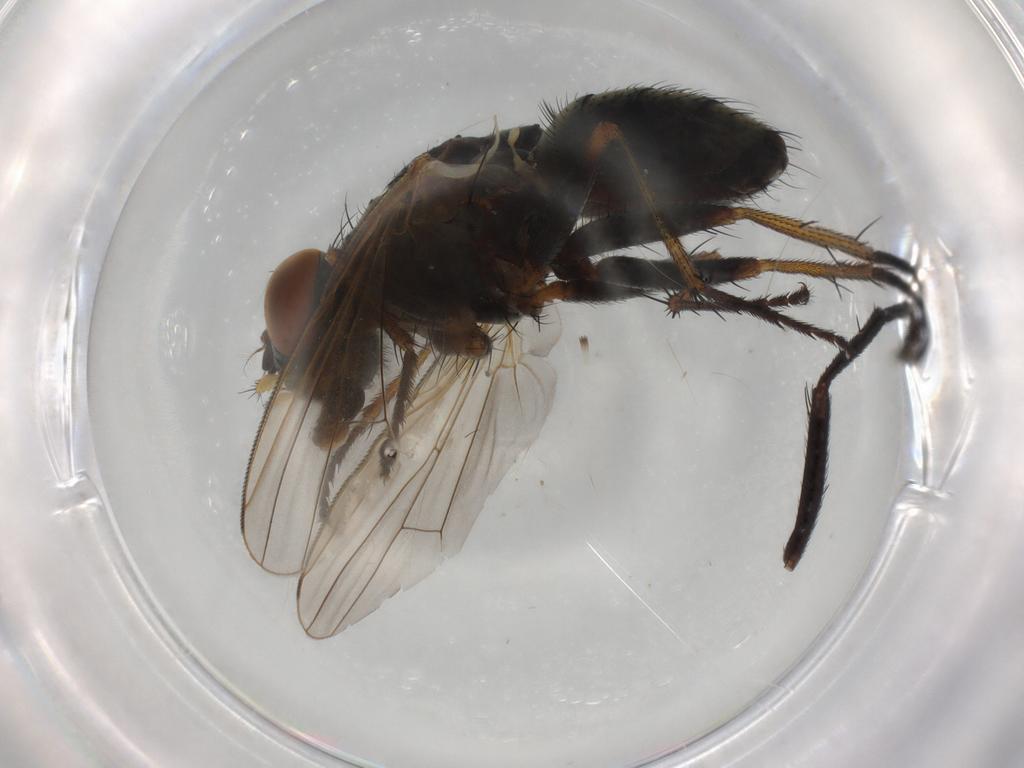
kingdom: Animalia
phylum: Arthropoda
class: Insecta
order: Diptera
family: Muscidae
